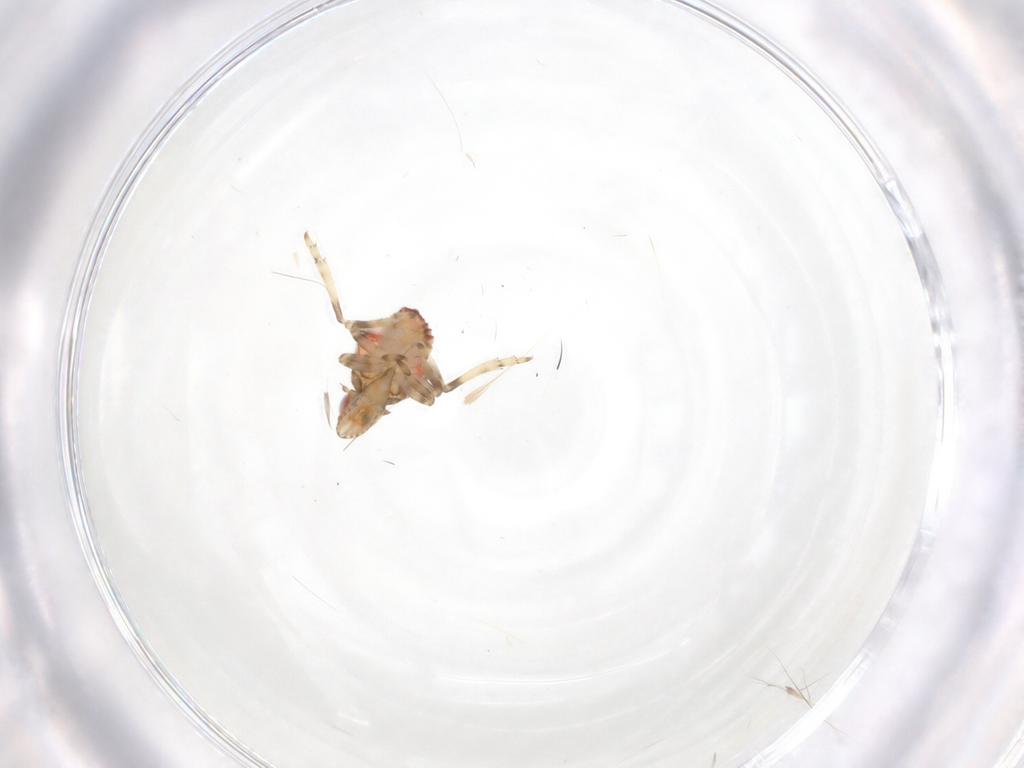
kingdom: Animalia
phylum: Arthropoda
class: Insecta
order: Hemiptera
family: Tropiduchidae
